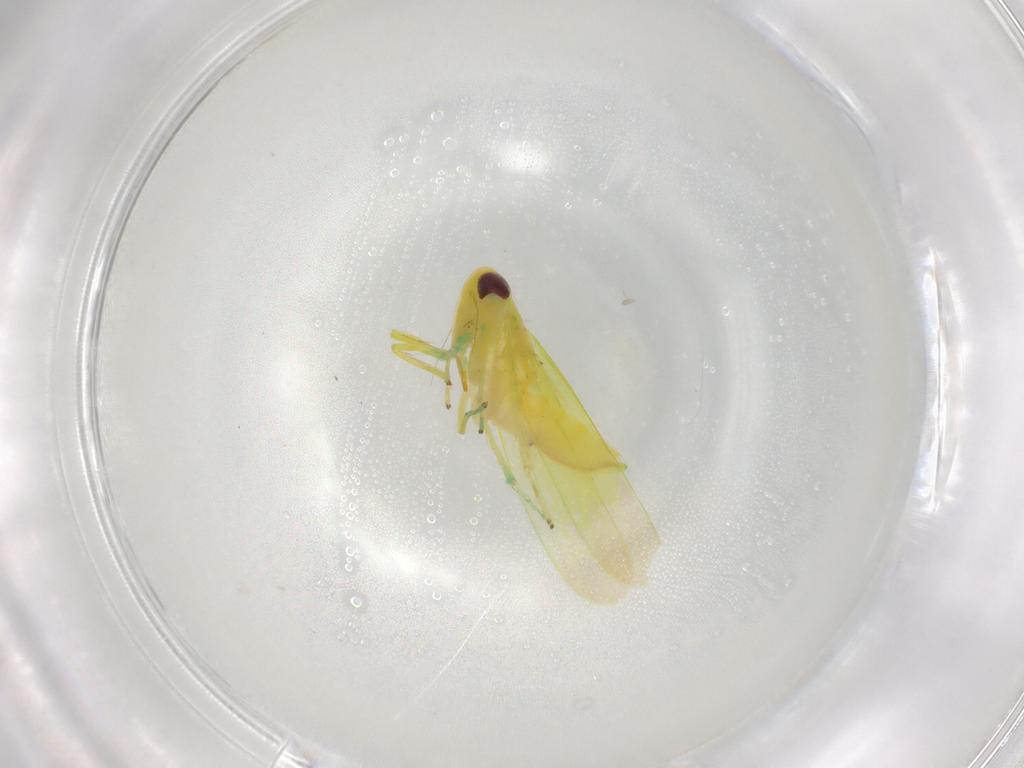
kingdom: Animalia
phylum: Arthropoda
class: Insecta
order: Hemiptera
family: Cicadellidae
